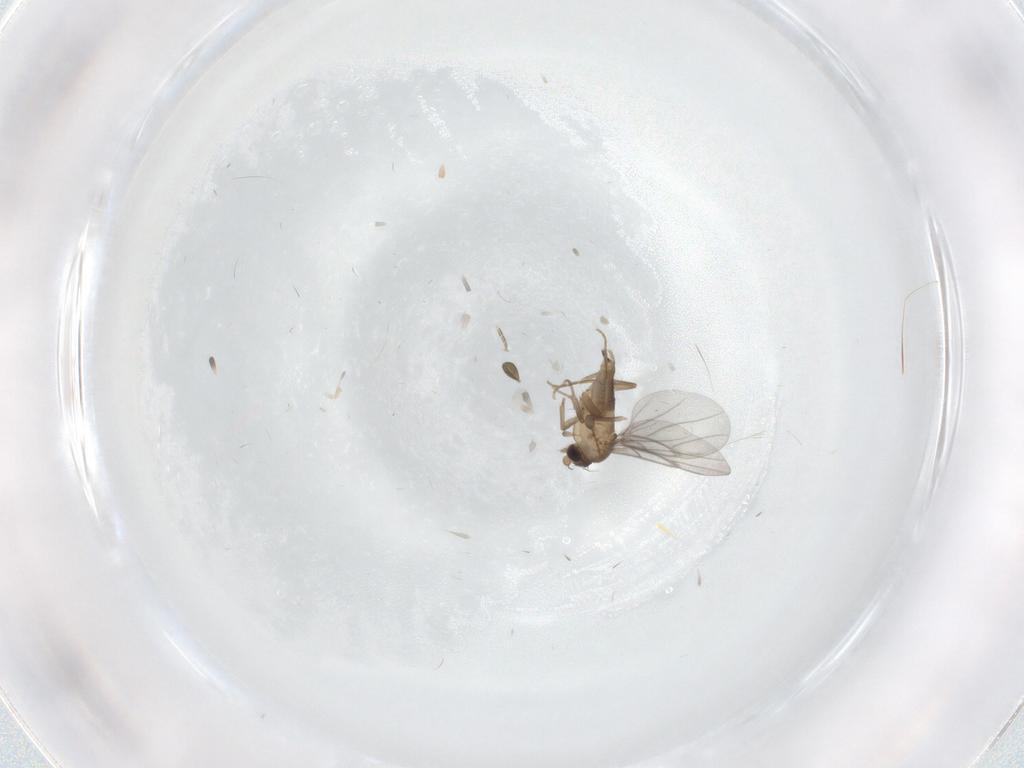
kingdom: Animalia
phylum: Arthropoda
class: Insecta
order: Diptera
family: Chironomidae
